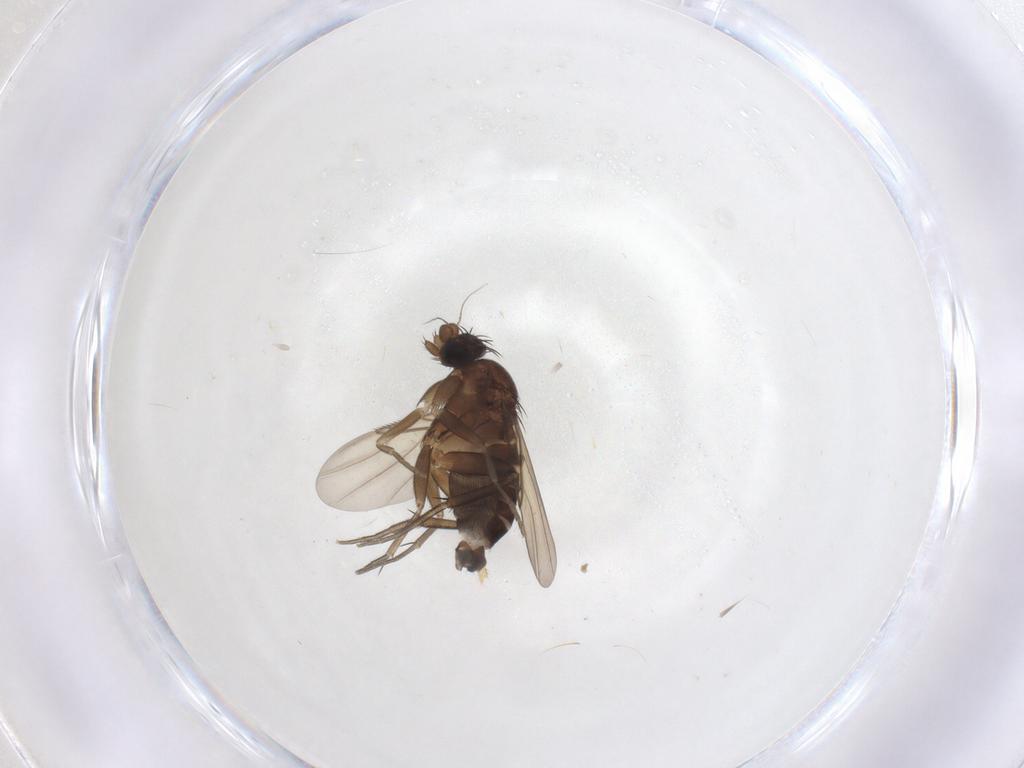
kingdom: Animalia
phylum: Arthropoda
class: Insecta
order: Diptera
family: Phoridae
